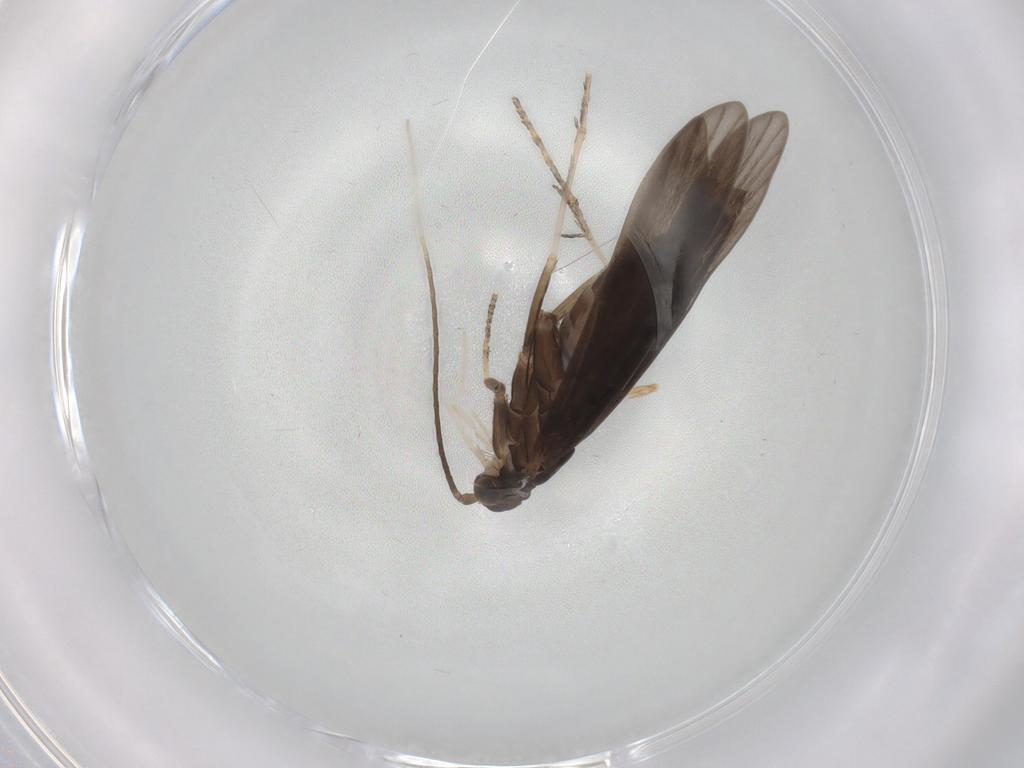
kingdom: Animalia
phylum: Arthropoda
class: Insecta
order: Trichoptera
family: Xiphocentronidae
